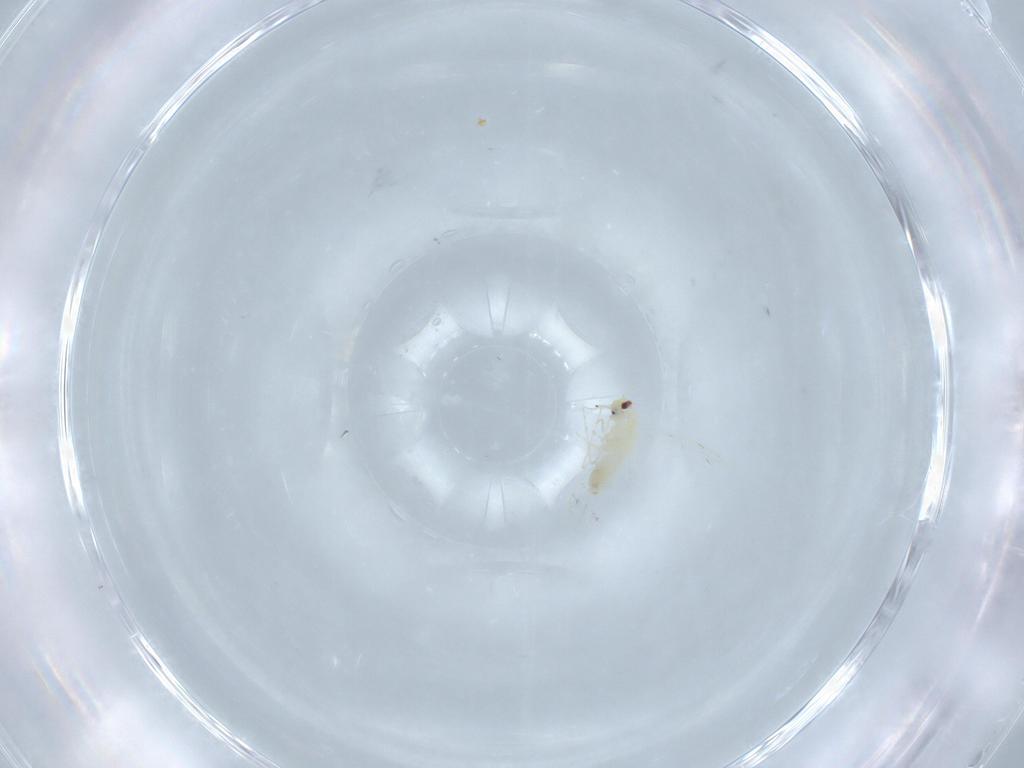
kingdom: Animalia
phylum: Arthropoda
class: Insecta
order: Hemiptera
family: Aleyrodidae
